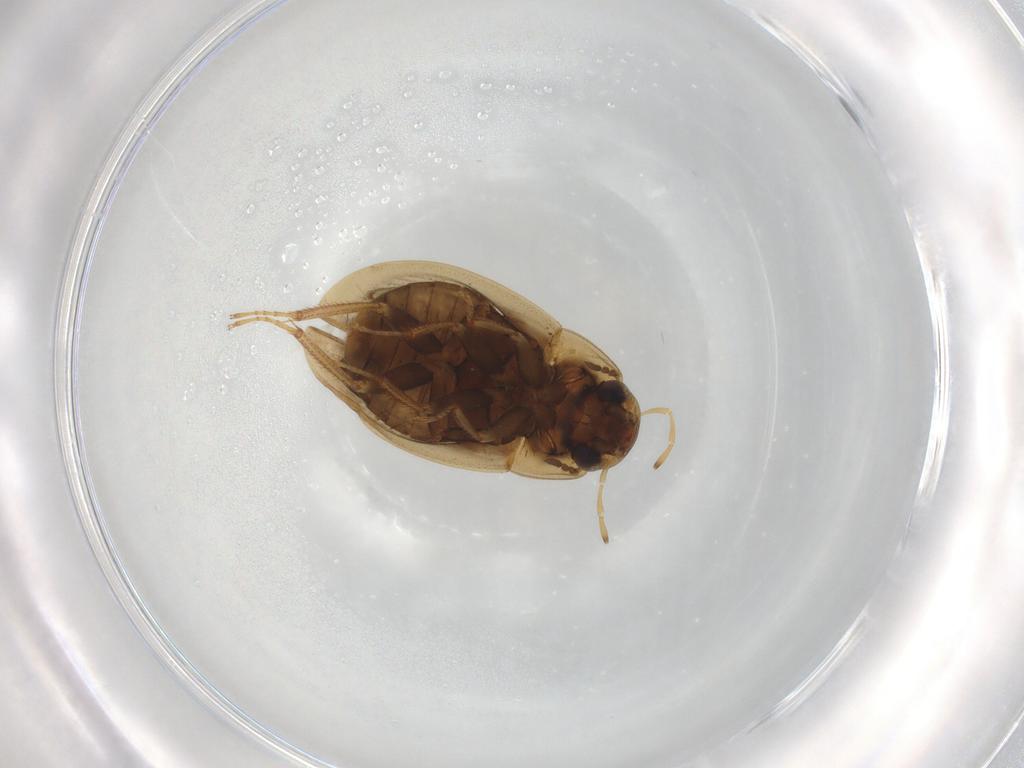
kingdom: Animalia
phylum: Arthropoda
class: Insecta
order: Coleoptera
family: Hydrophilidae
